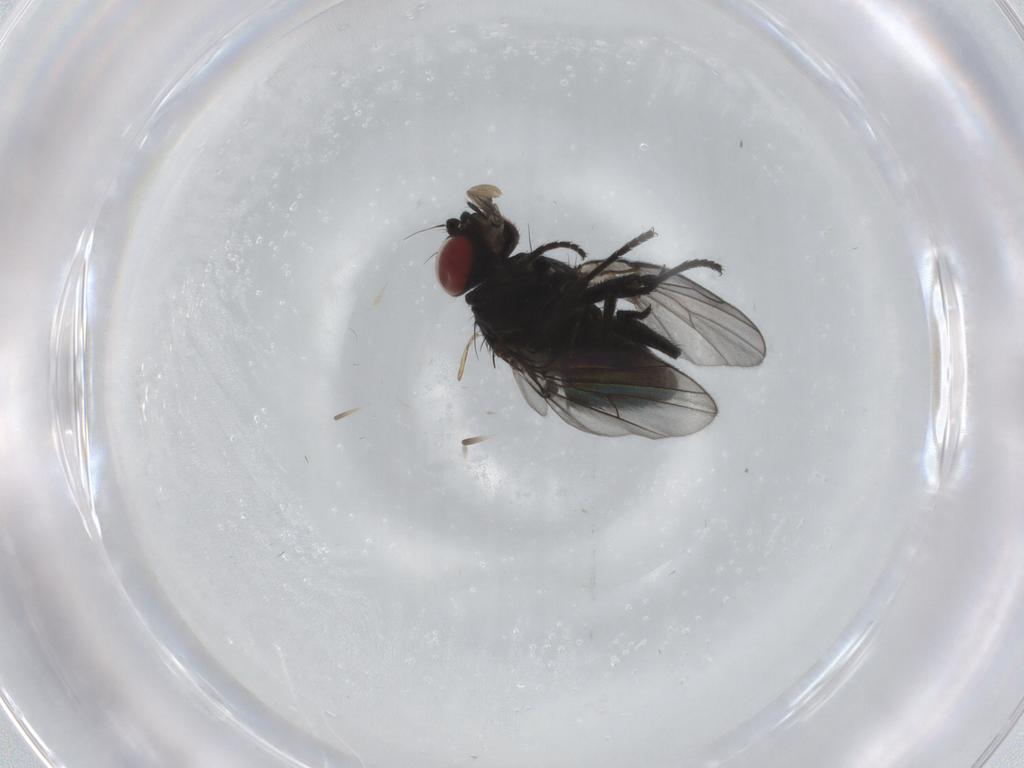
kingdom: Animalia
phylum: Arthropoda
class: Insecta
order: Diptera
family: Agromyzidae
